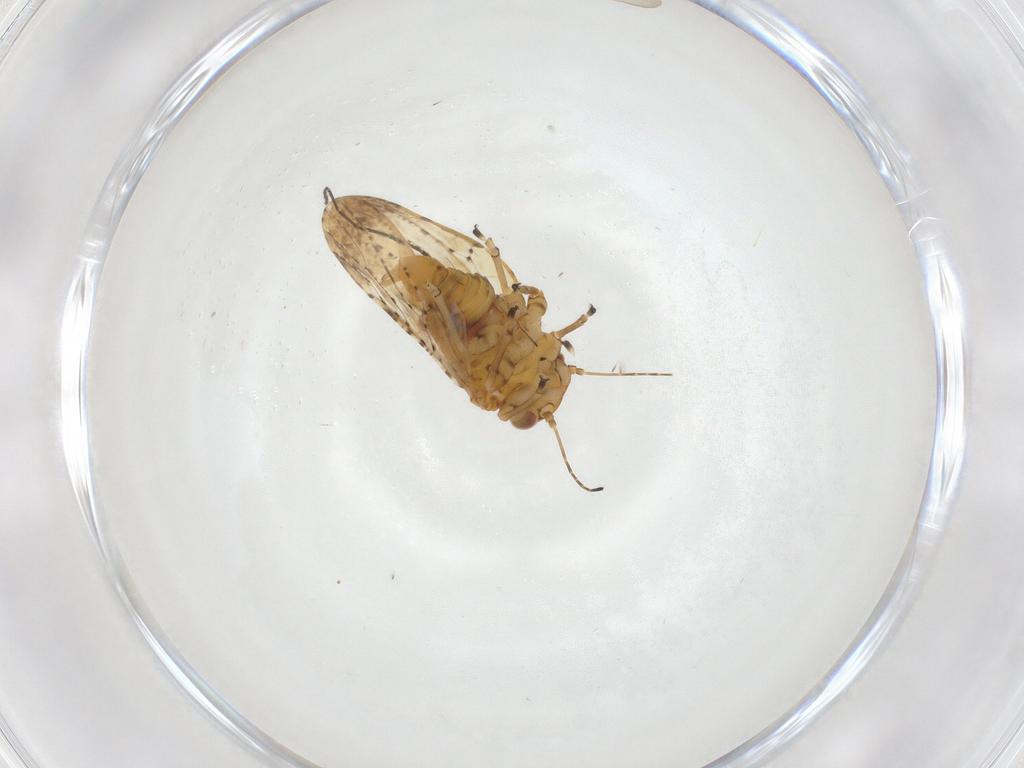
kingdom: Animalia
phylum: Arthropoda
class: Insecta
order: Hemiptera
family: Liviidae
